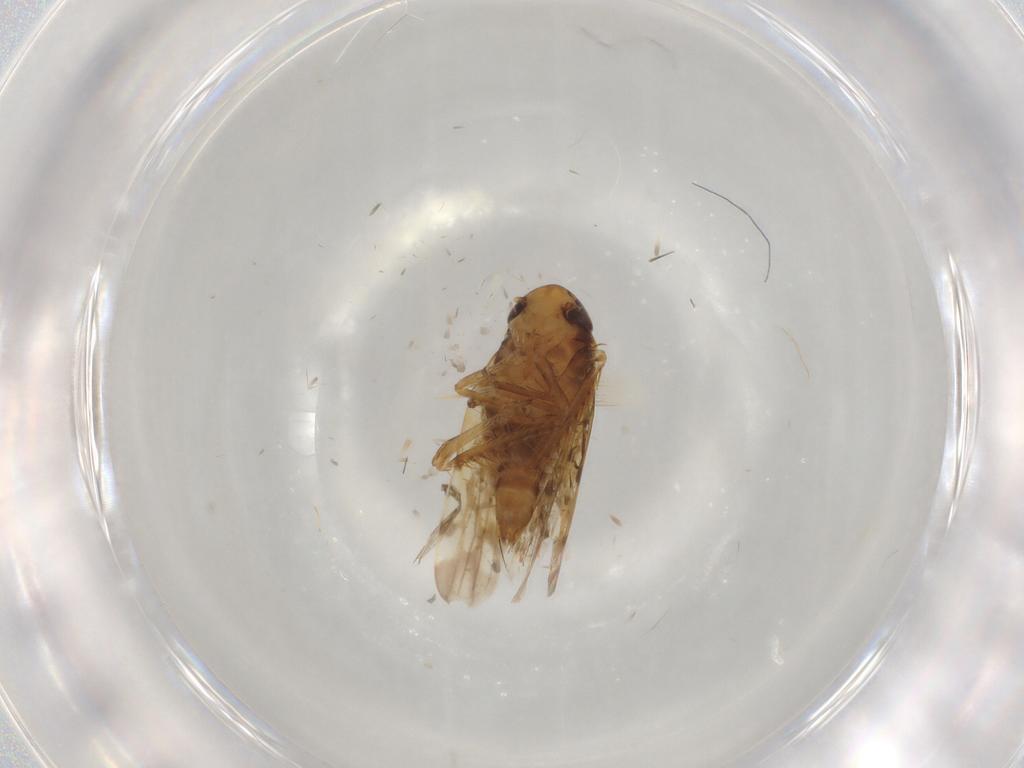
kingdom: Animalia
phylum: Arthropoda
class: Insecta
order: Hemiptera
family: Cicadellidae
